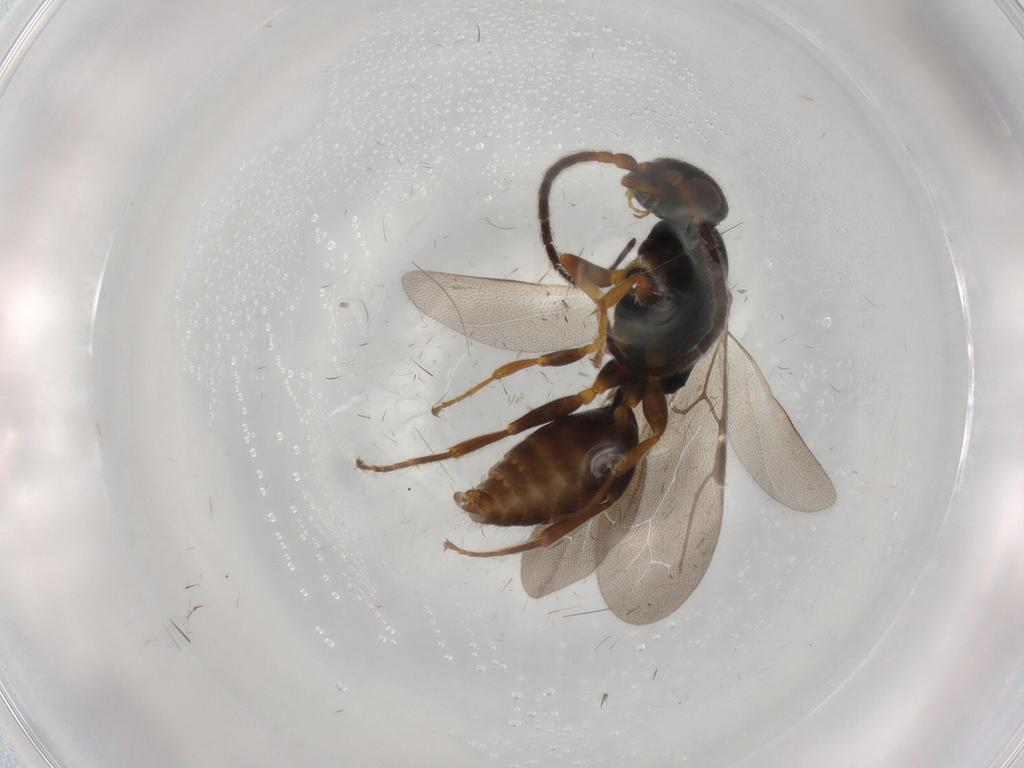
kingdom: Animalia
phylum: Arthropoda
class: Insecta
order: Hymenoptera
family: Bethylidae
